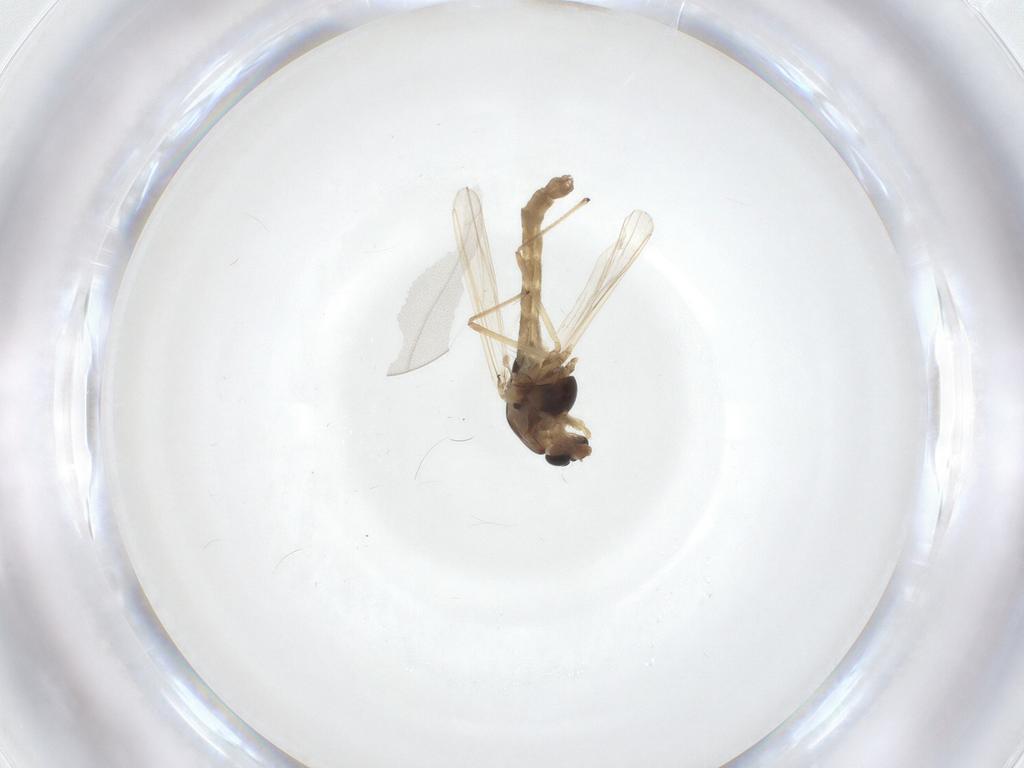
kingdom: Animalia
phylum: Arthropoda
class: Insecta
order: Diptera
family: Chironomidae
